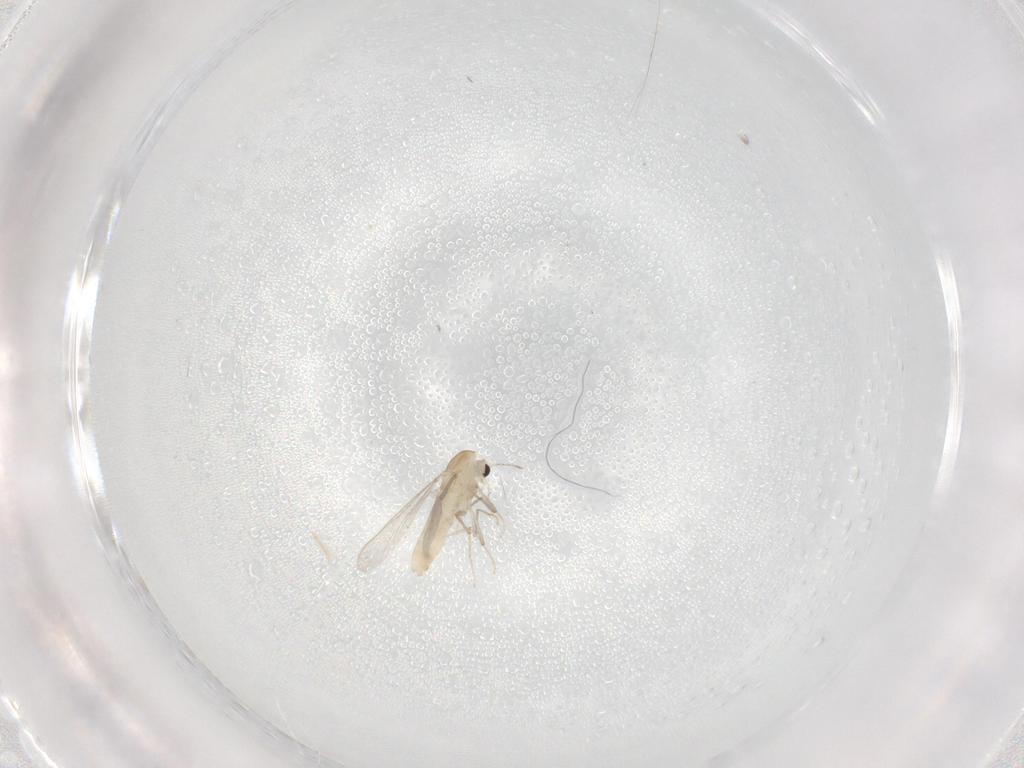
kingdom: Animalia
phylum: Arthropoda
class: Insecta
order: Diptera
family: Chironomidae
